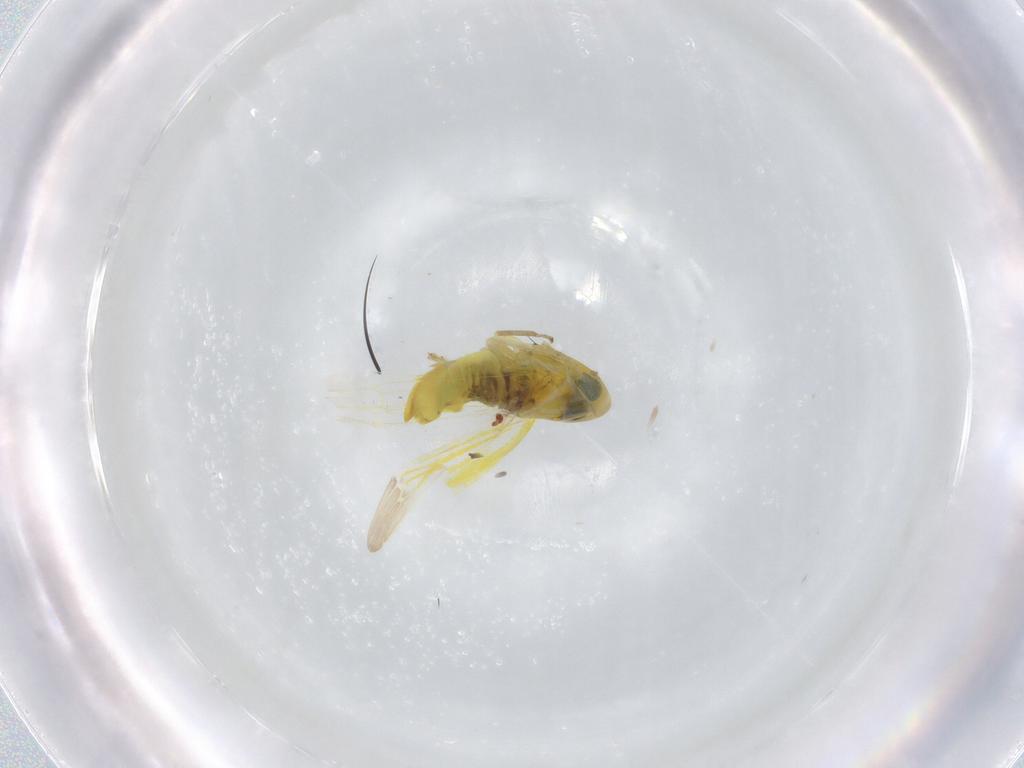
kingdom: Animalia
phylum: Arthropoda
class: Insecta
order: Hemiptera
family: Cicadellidae
